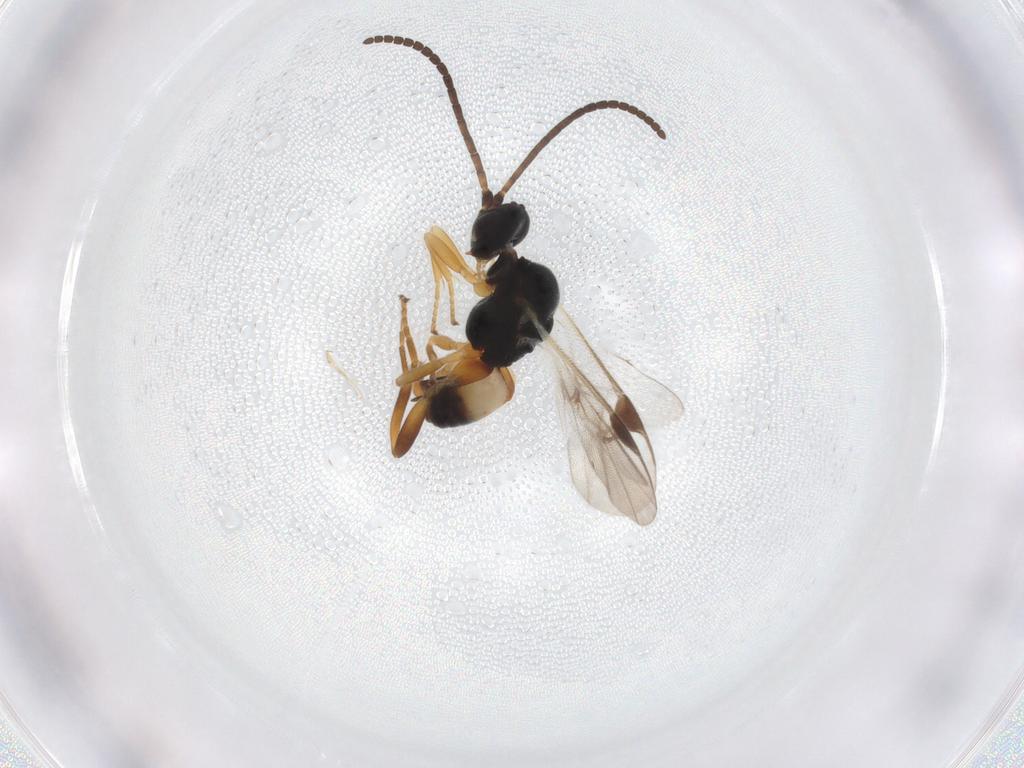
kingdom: Animalia
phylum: Arthropoda
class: Insecta
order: Hymenoptera
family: Braconidae
